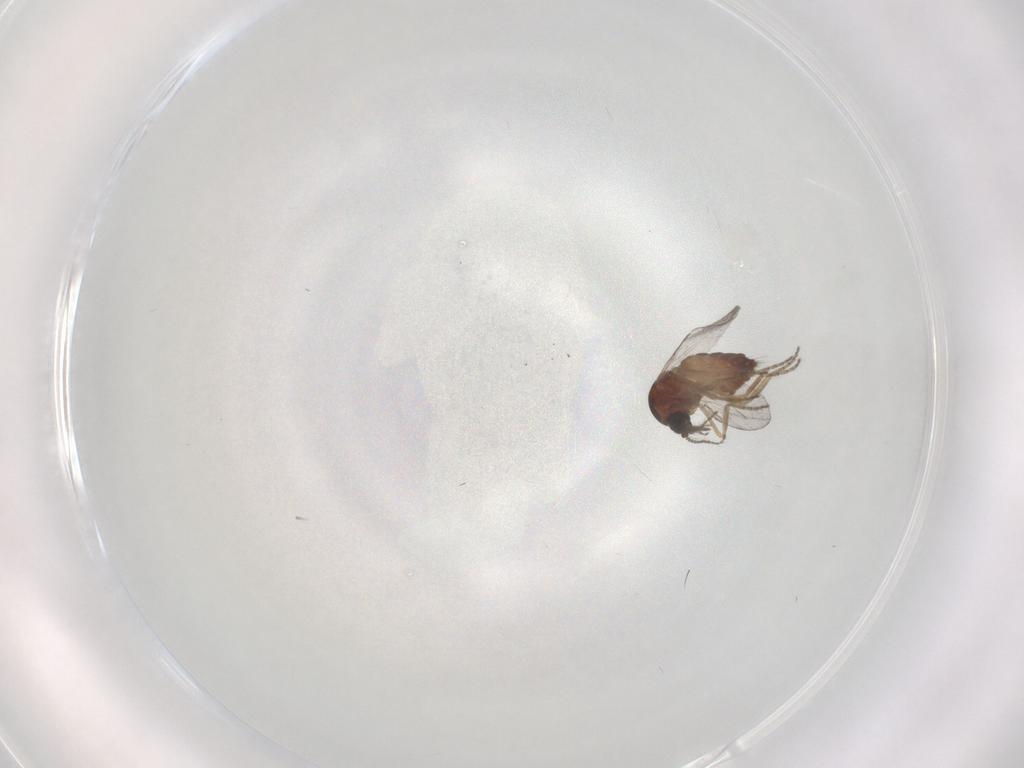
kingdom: Animalia
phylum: Arthropoda
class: Insecta
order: Diptera
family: Ceratopogonidae
